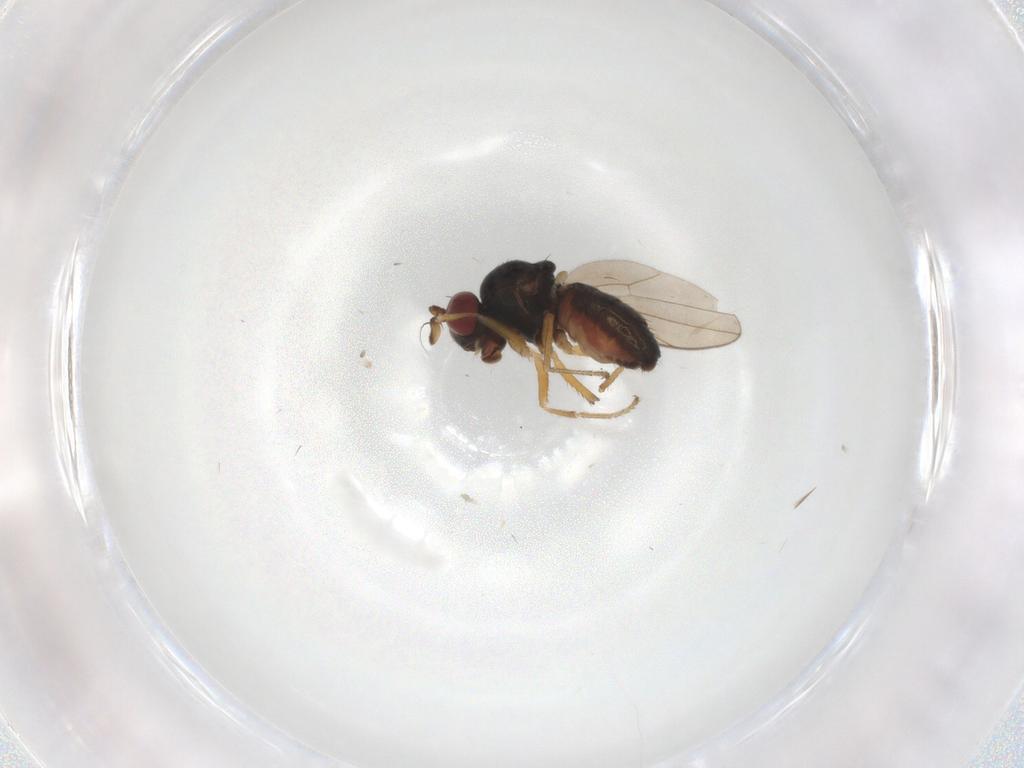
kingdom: Animalia
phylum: Arthropoda
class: Insecta
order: Diptera
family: Ephydridae
